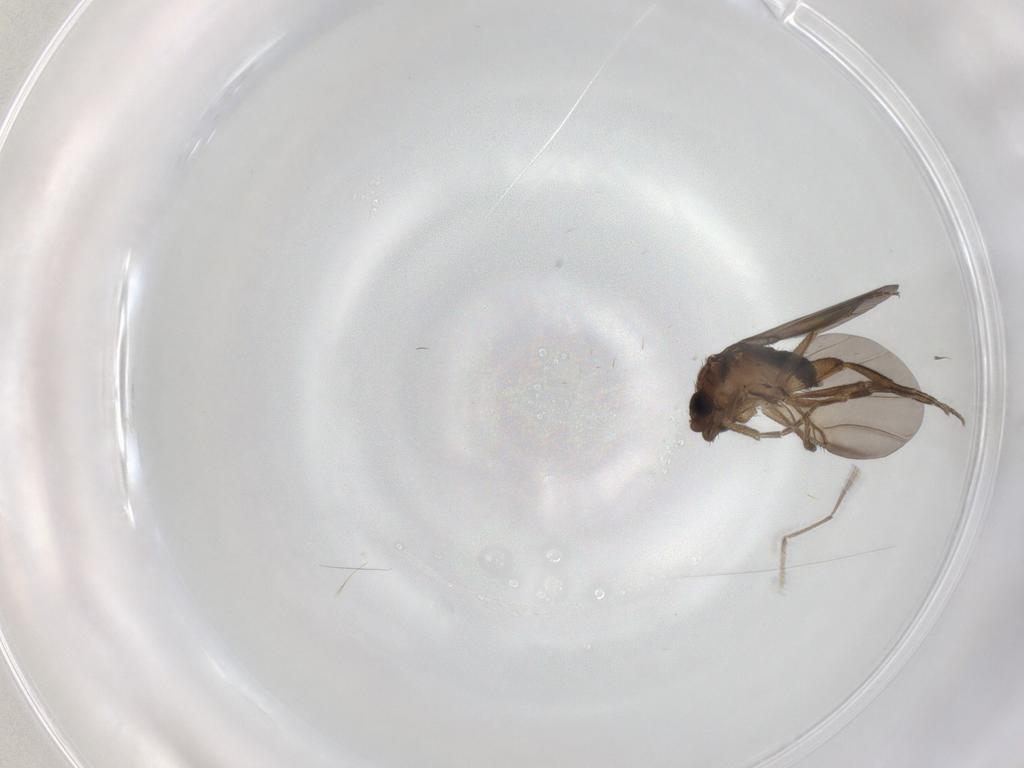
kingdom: Animalia
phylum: Arthropoda
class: Insecta
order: Diptera
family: Phoridae
